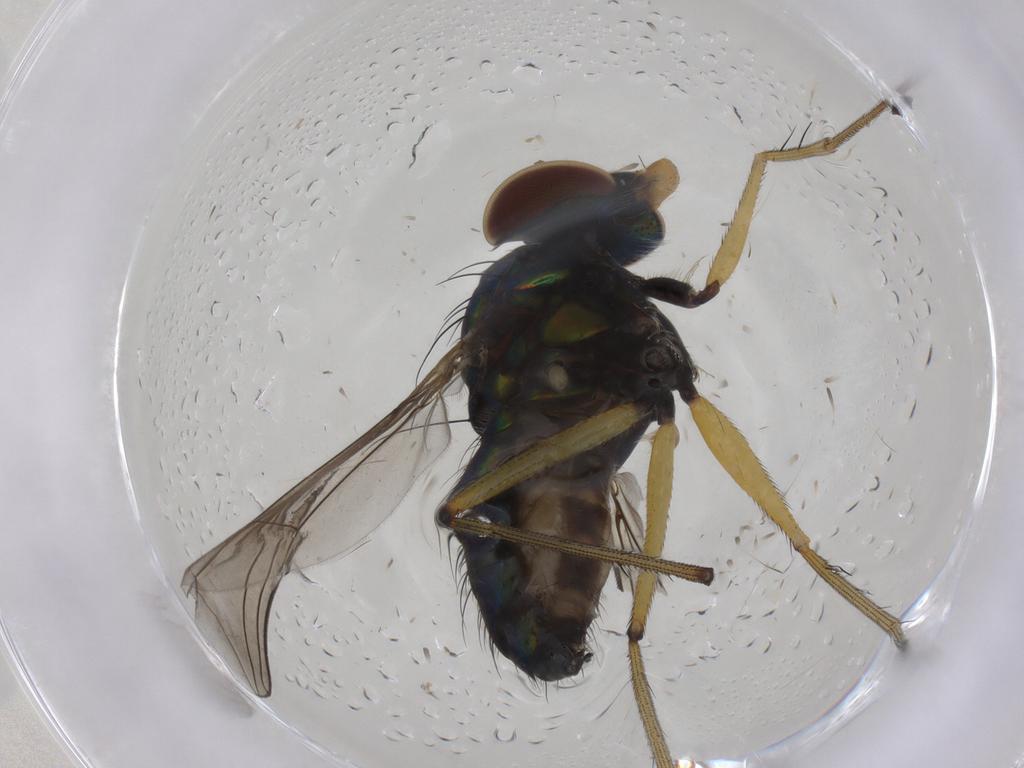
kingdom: Animalia
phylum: Arthropoda
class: Insecta
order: Diptera
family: Dolichopodidae
